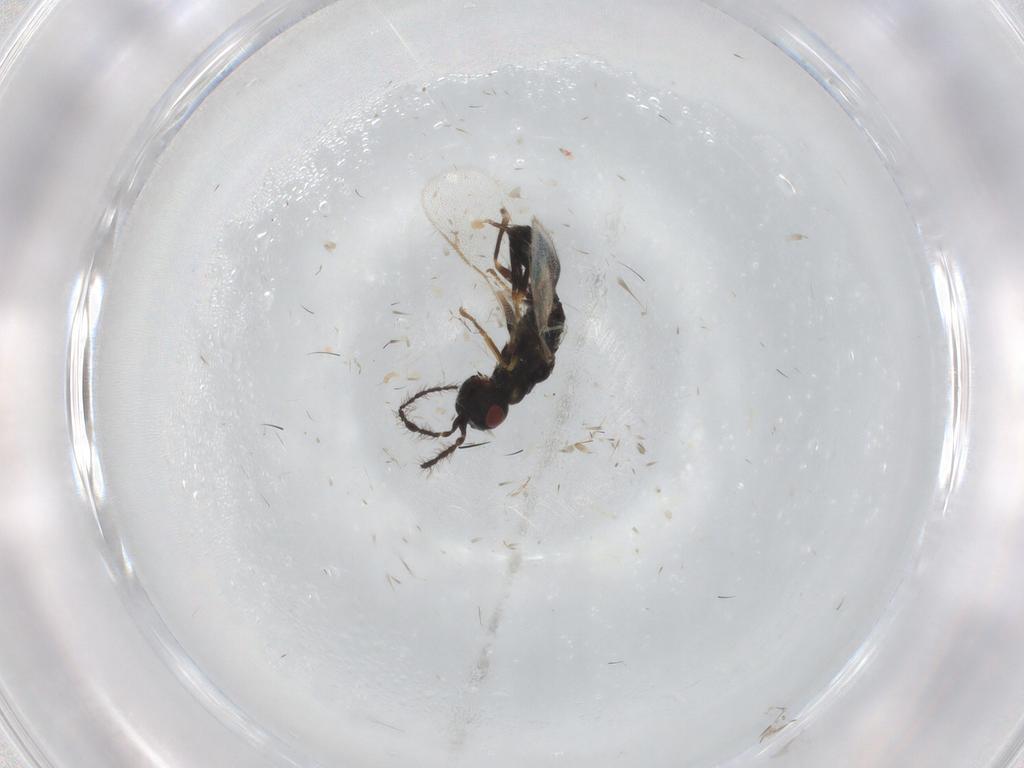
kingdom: Animalia
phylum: Arthropoda
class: Insecta
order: Hymenoptera
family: Eurytomidae
